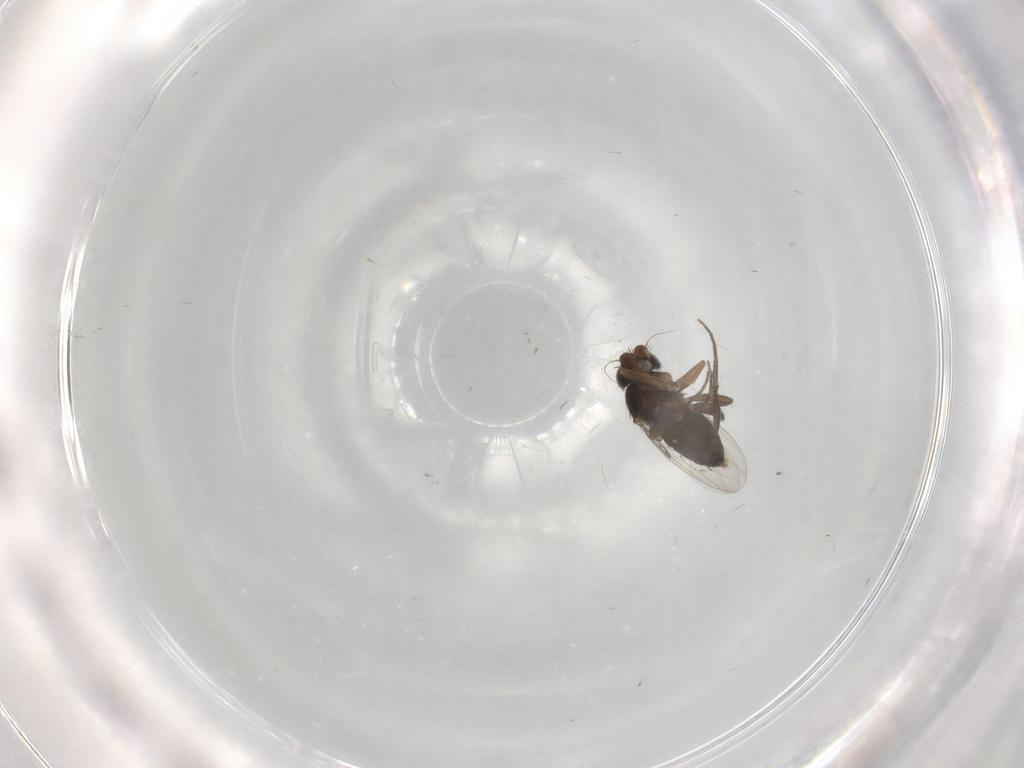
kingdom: Animalia
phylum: Arthropoda
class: Insecta
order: Diptera
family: Phoridae
